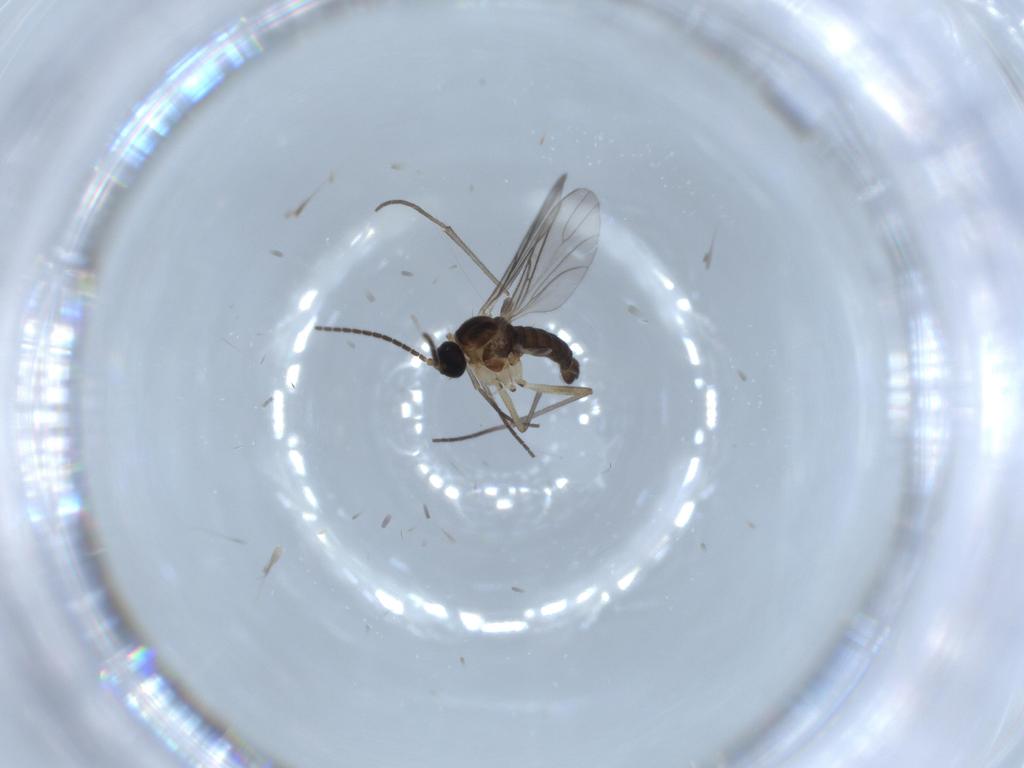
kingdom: Animalia
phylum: Arthropoda
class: Insecta
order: Diptera
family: Sciaridae
